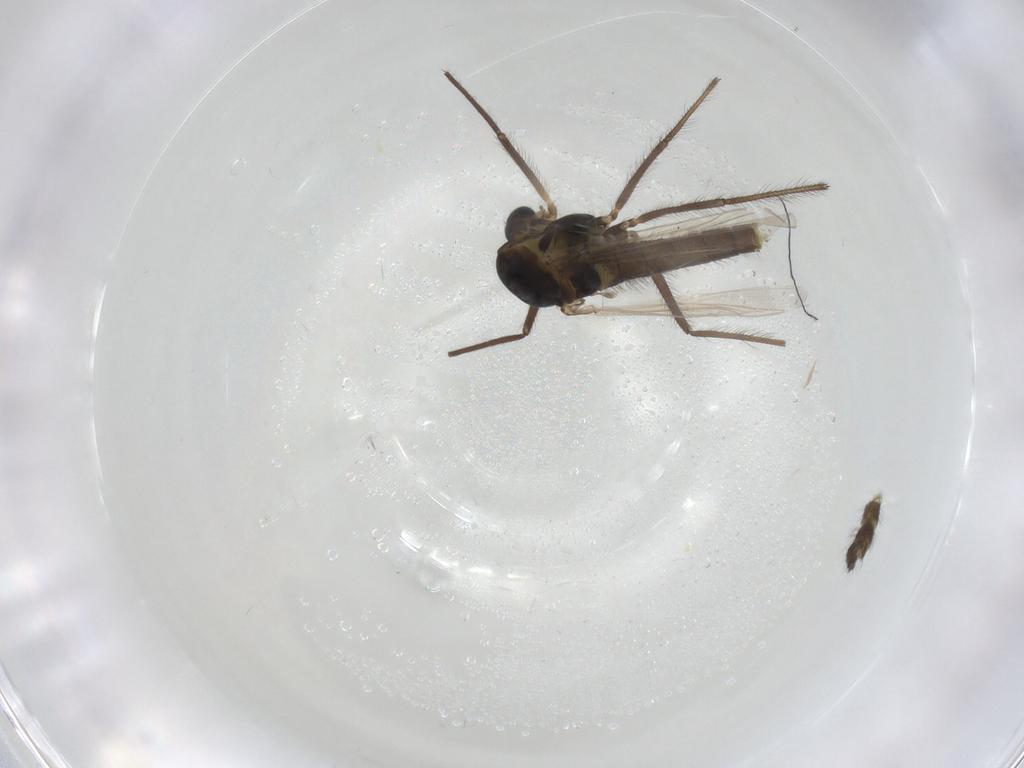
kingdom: Animalia
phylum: Arthropoda
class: Insecta
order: Diptera
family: Chironomidae
